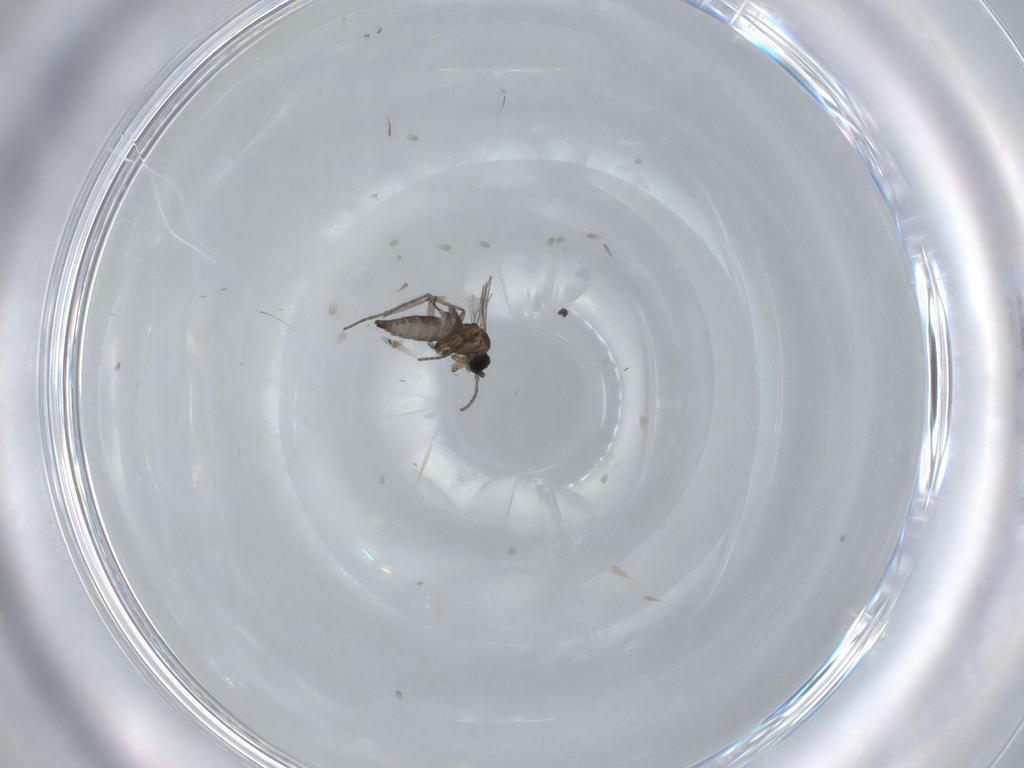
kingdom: Animalia
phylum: Arthropoda
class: Insecta
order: Diptera
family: Cecidomyiidae
